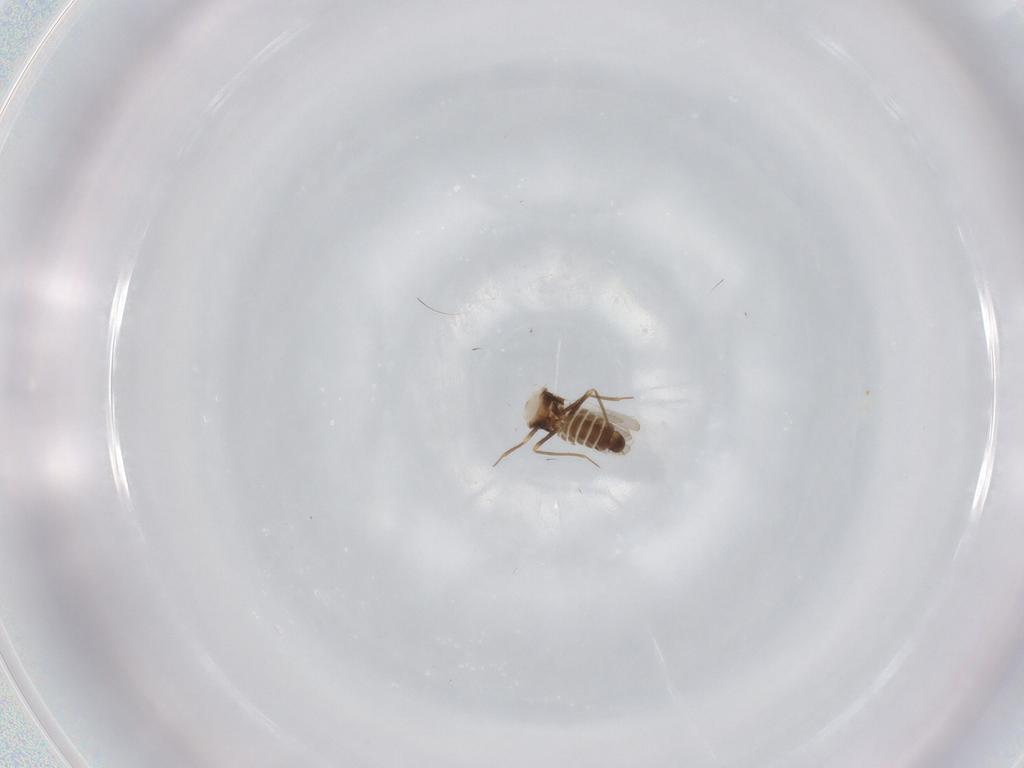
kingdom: Animalia
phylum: Arthropoda
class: Insecta
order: Hemiptera
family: Schizopteridae
